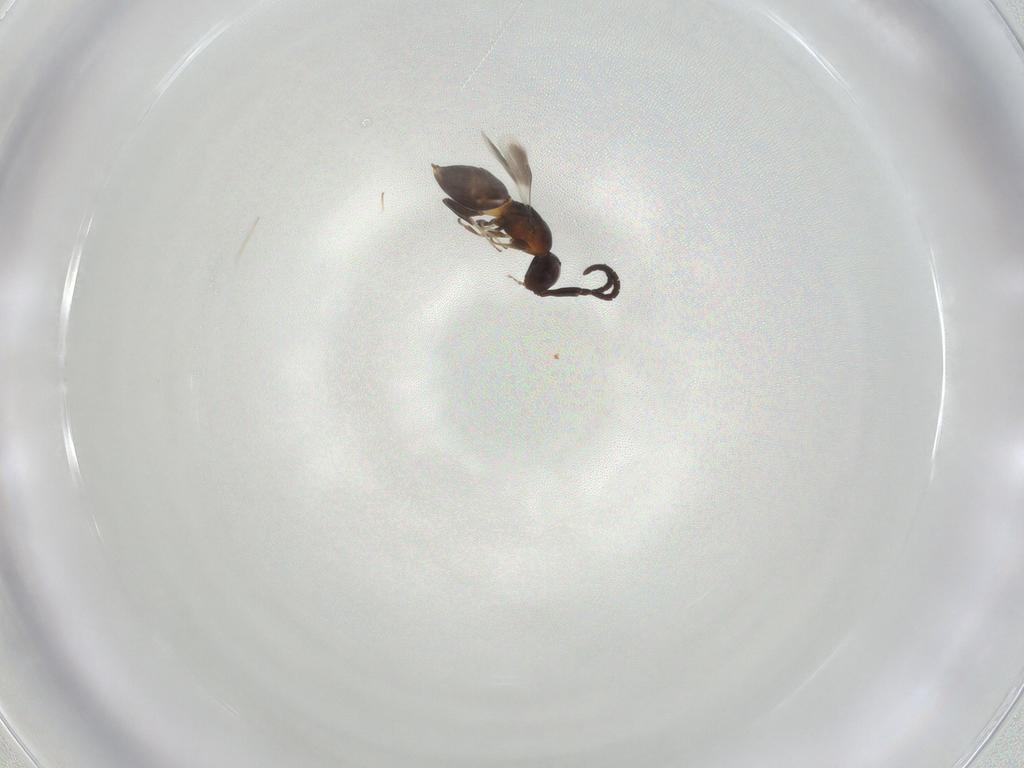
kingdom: Animalia
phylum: Arthropoda
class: Insecta
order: Hymenoptera
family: Megaspilidae
